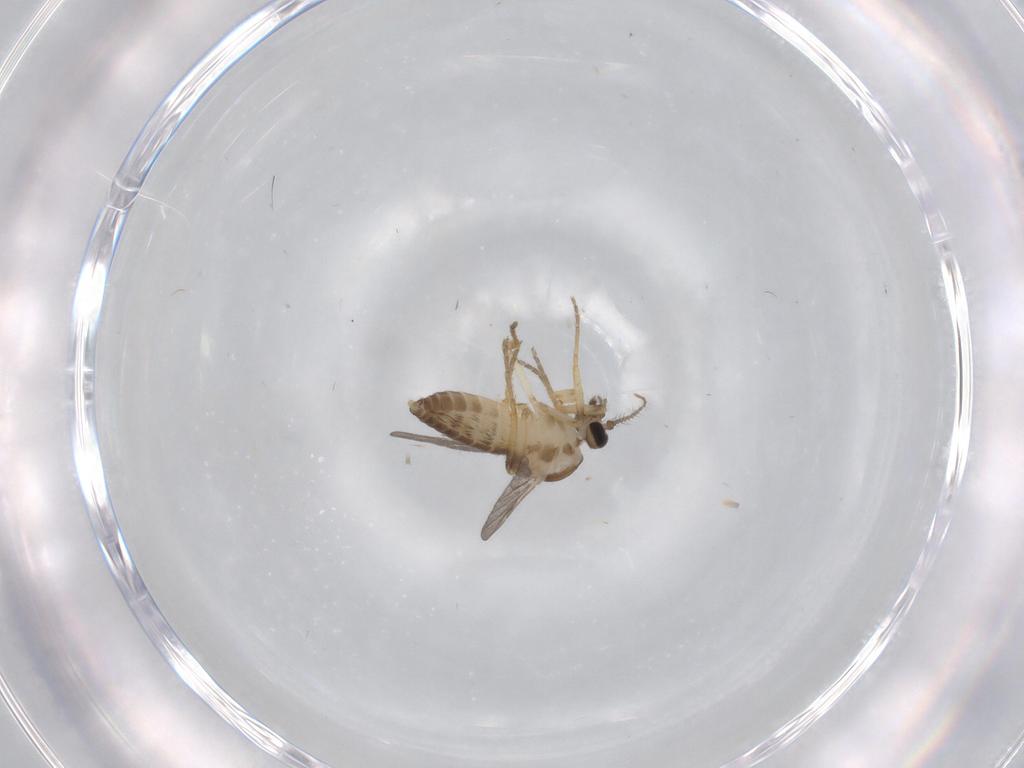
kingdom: Animalia
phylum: Arthropoda
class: Insecta
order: Diptera
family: Ceratopogonidae
